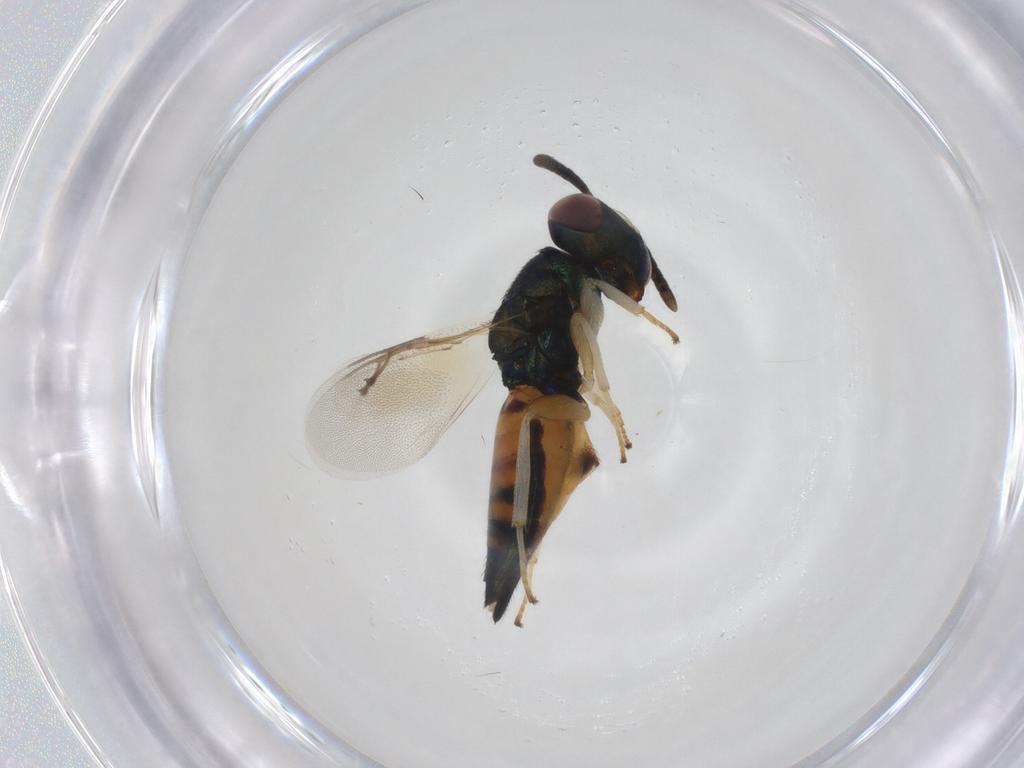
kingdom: Animalia
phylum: Arthropoda
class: Insecta
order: Hymenoptera
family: Pteromalidae
